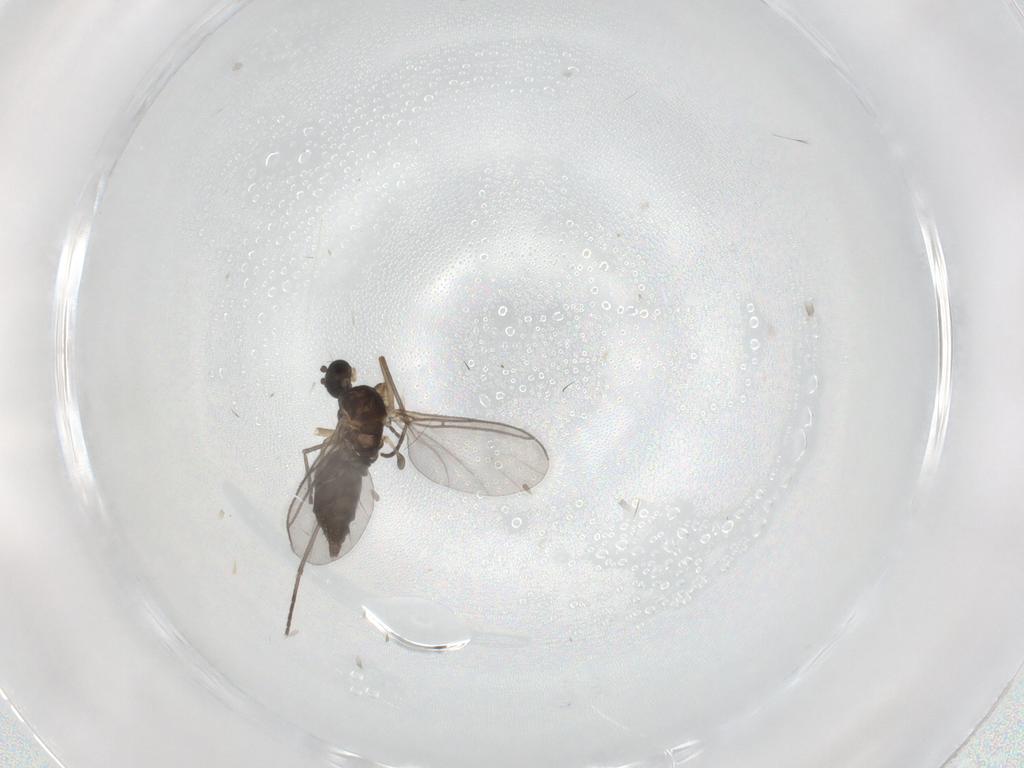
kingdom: Animalia
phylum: Arthropoda
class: Insecta
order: Diptera
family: Sciaridae
